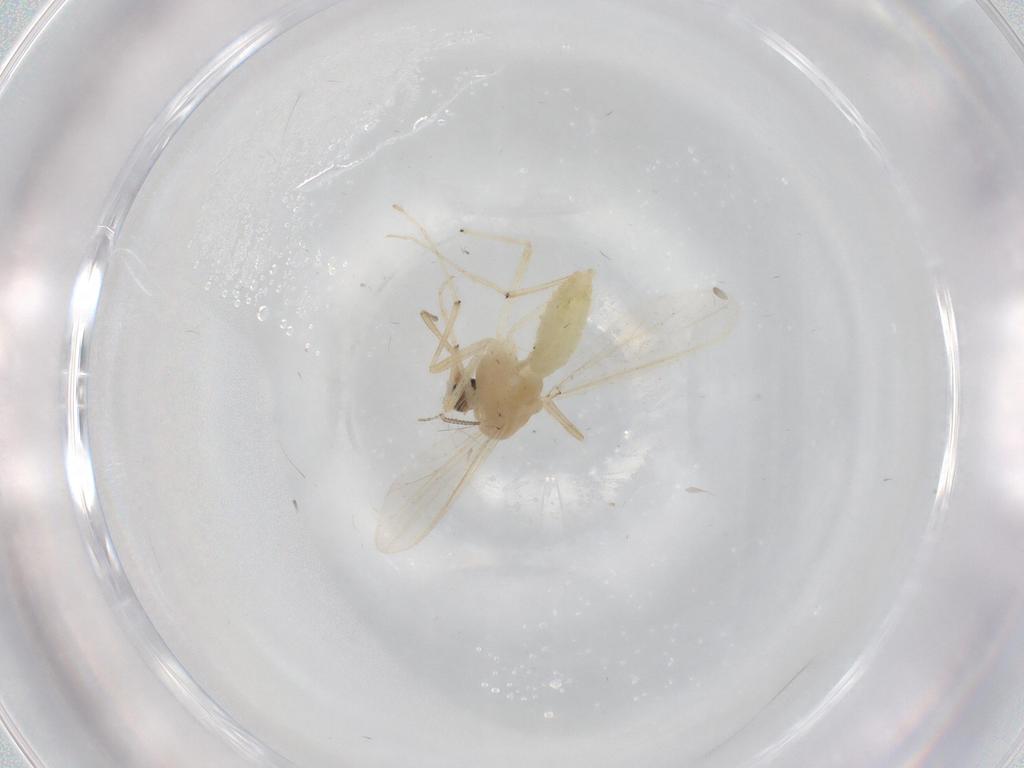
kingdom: Animalia
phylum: Arthropoda
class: Insecta
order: Diptera
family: Chironomidae
